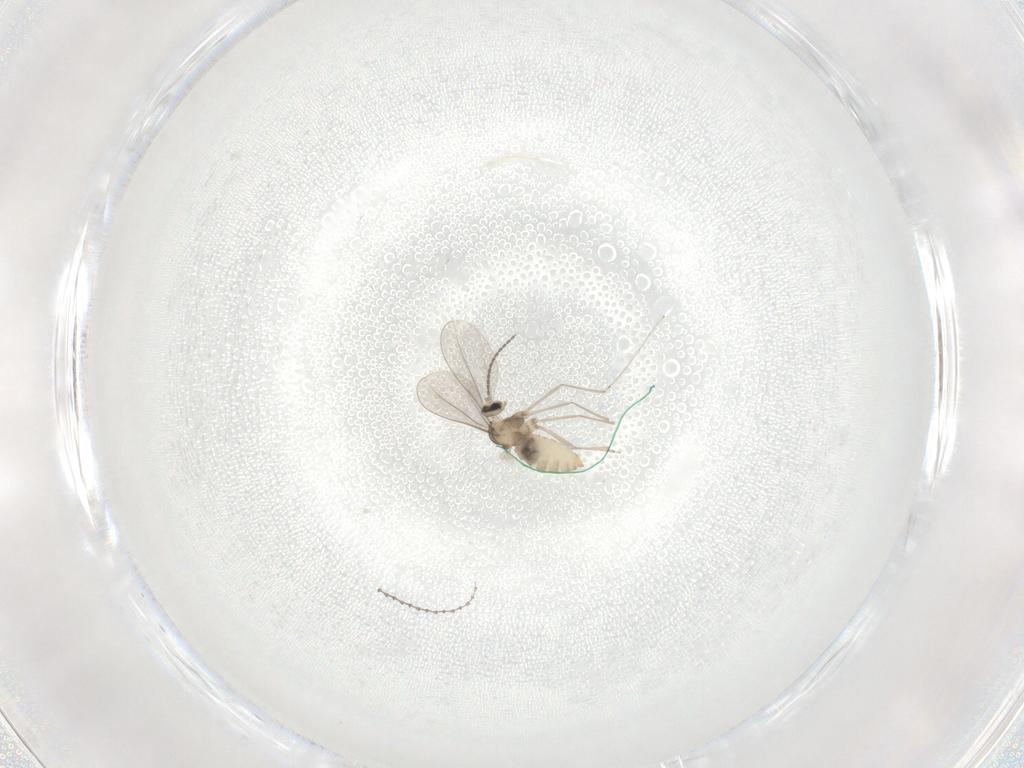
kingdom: Animalia
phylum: Arthropoda
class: Insecta
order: Diptera
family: Cecidomyiidae
